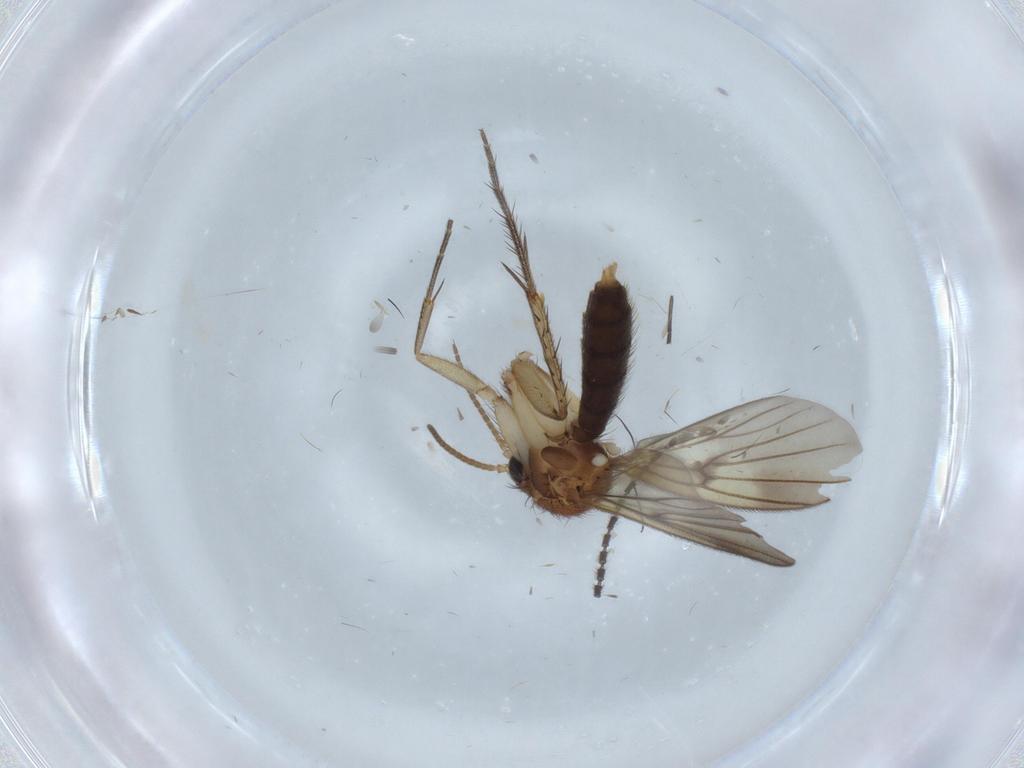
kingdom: Animalia
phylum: Arthropoda
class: Insecta
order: Diptera
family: Mycetophilidae
